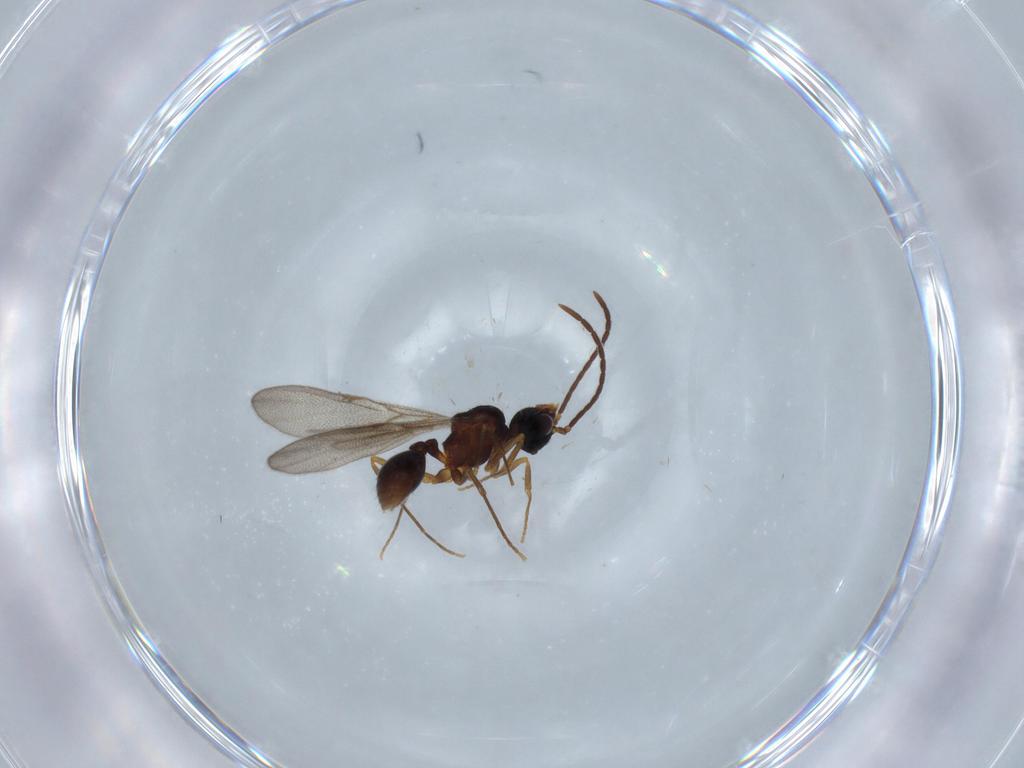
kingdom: Animalia
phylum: Arthropoda
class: Insecta
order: Hymenoptera
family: Formicidae
